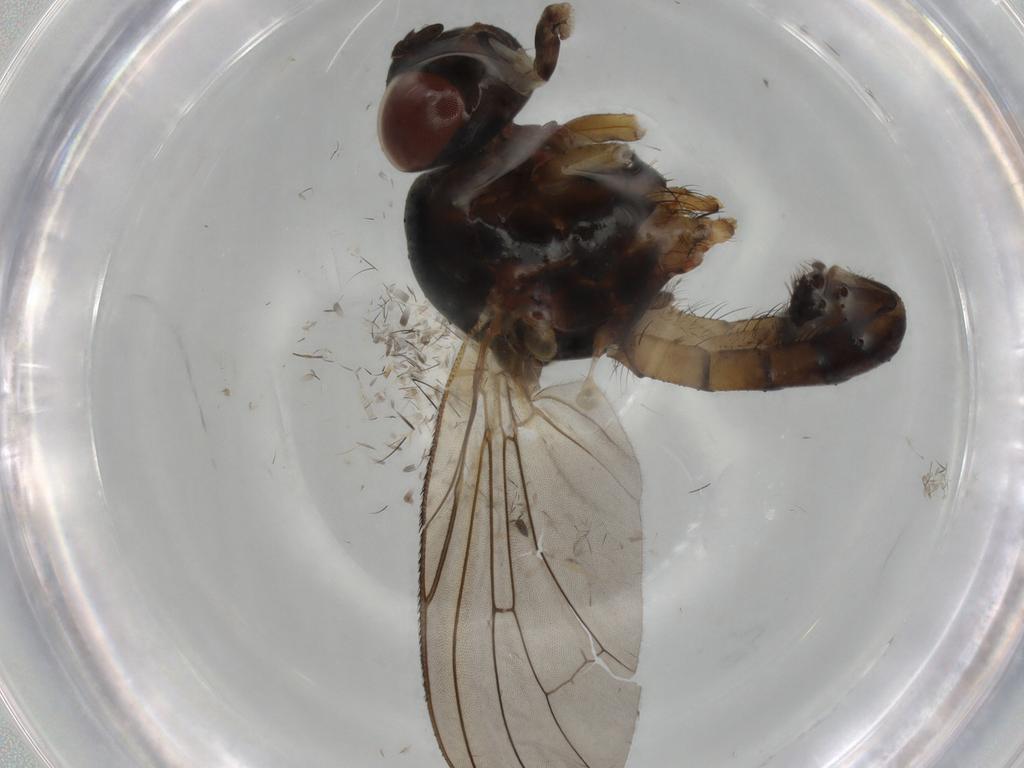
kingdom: Animalia
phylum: Arthropoda
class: Insecta
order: Diptera
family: Anthomyiidae
